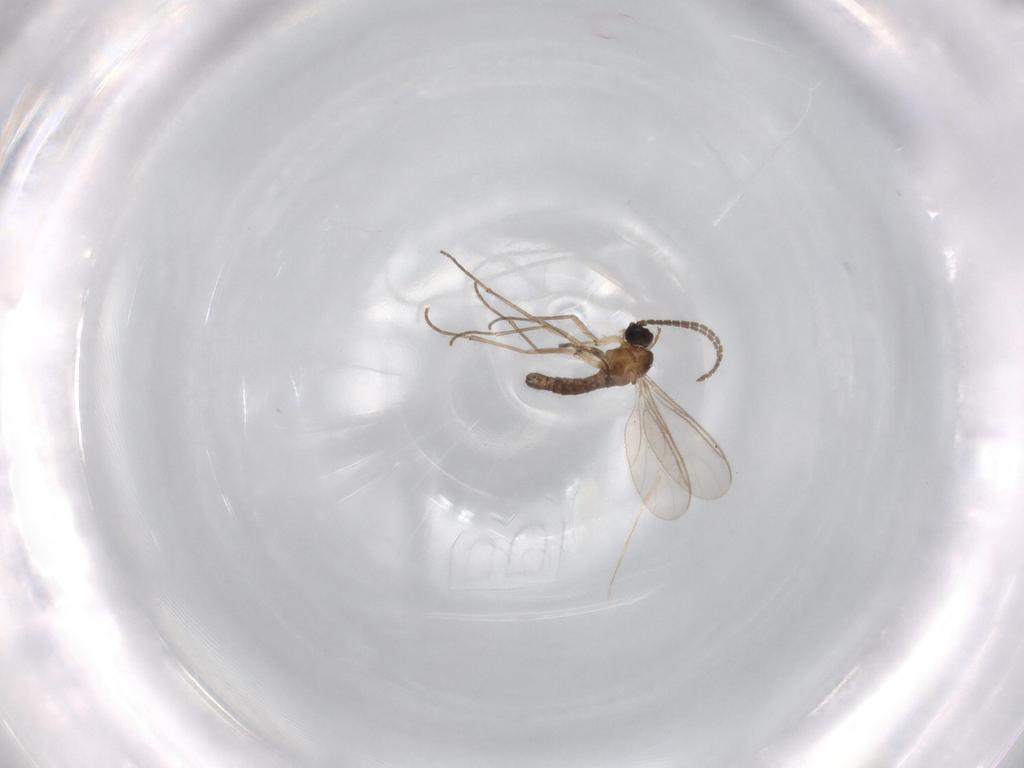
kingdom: Animalia
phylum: Arthropoda
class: Insecta
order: Diptera
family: Sciaridae
